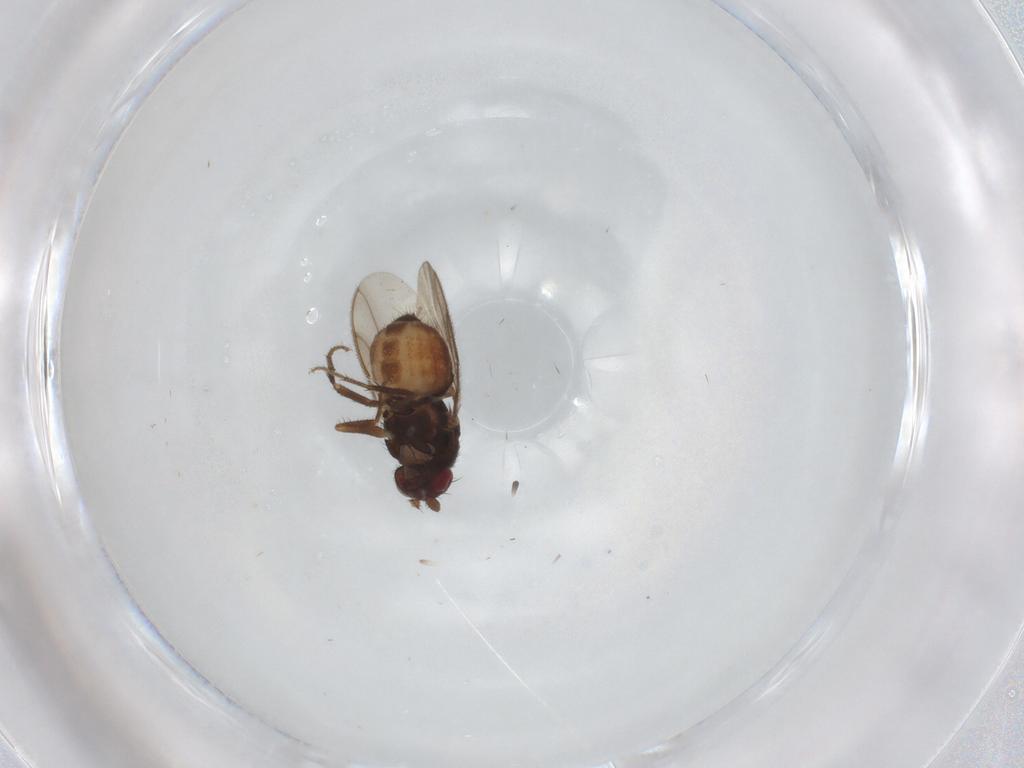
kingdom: Animalia
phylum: Arthropoda
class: Insecta
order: Diptera
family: Sphaeroceridae
